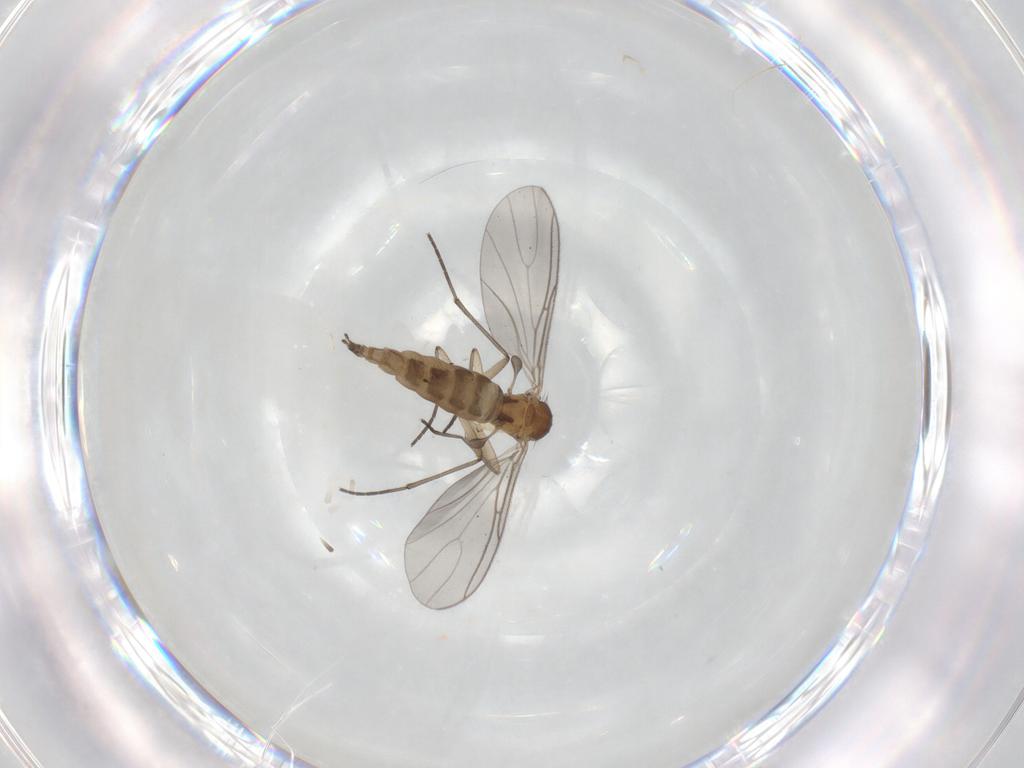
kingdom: Animalia
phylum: Arthropoda
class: Insecta
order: Diptera
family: Sciaridae
